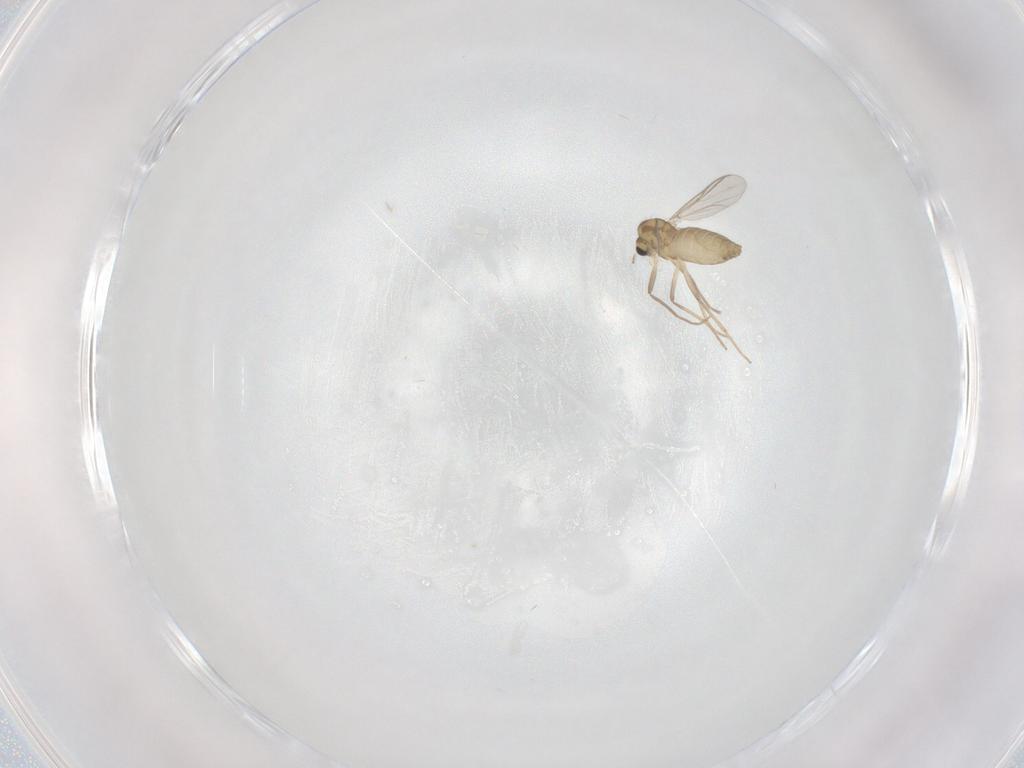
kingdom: Animalia
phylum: Arthropoda
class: Insecta
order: Diptera
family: Chironomidae
